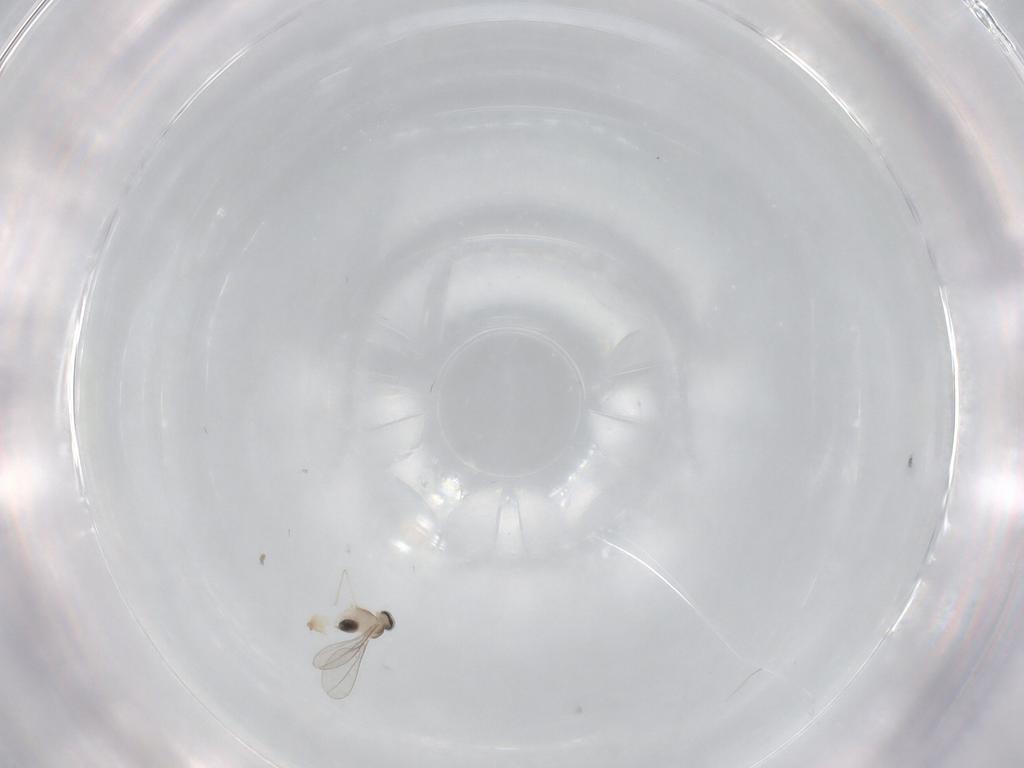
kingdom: Animalia
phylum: Arthropoda
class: Insecta
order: Diptera
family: Cecidomyiidae
